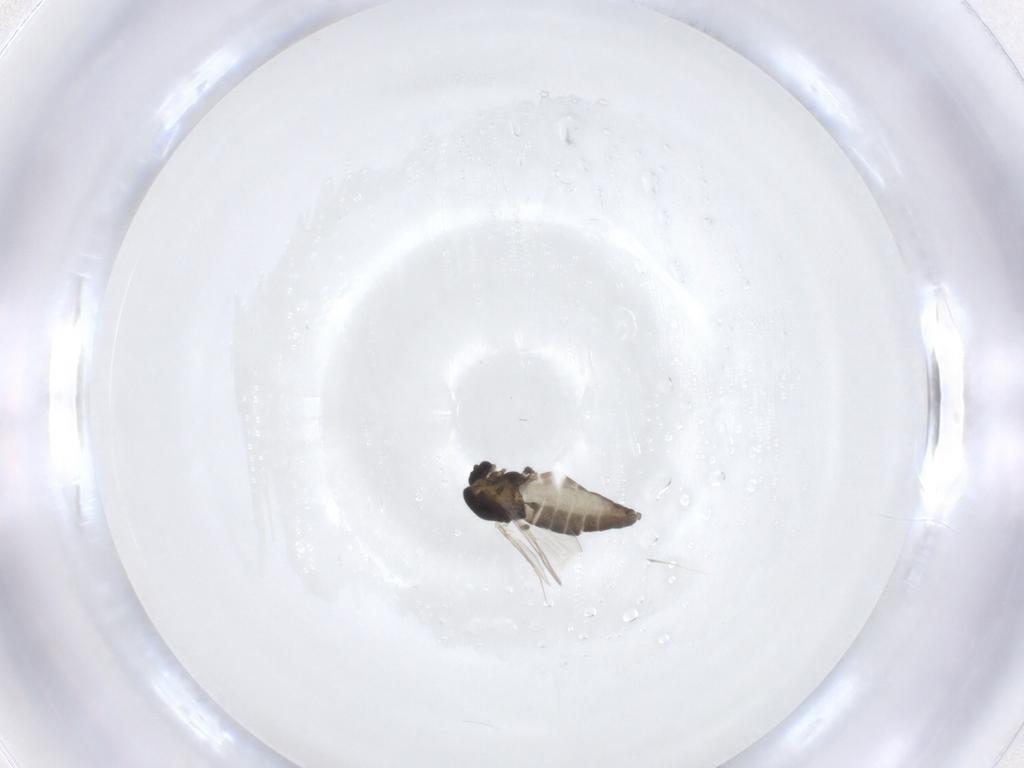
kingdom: Animalia
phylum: Arthropoda
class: Insecta
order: Diptera
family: Chironomidae
